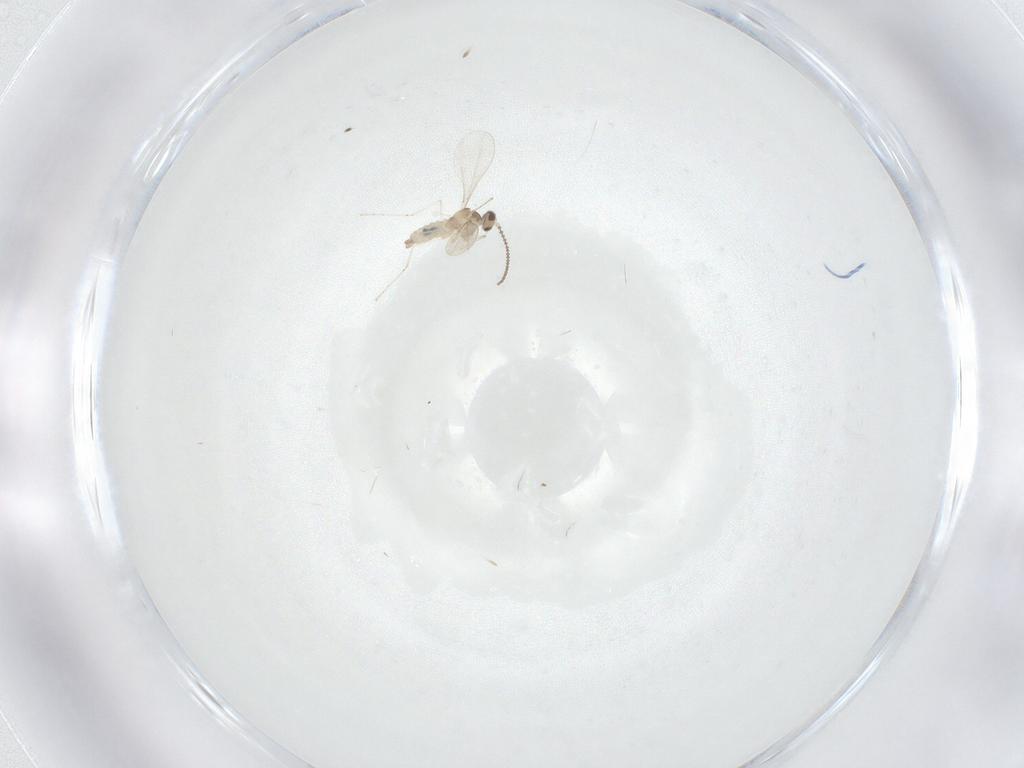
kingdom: Animalia
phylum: Arthropoda
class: Insecta
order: Diptera
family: Cecidomyiidae
